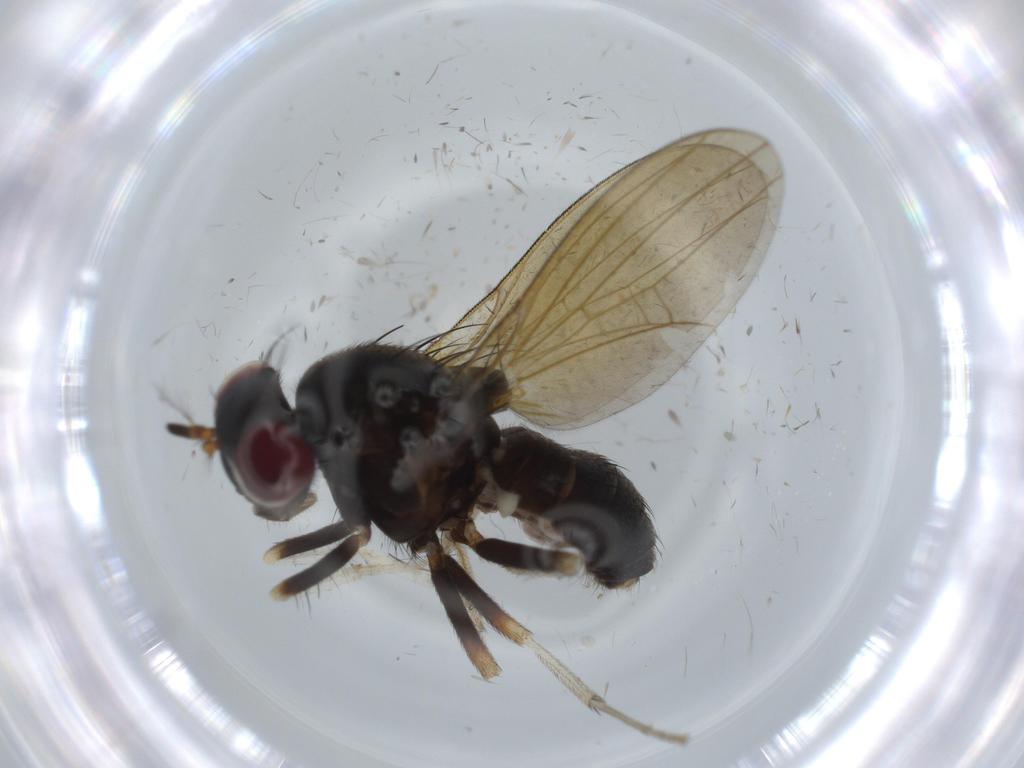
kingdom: Animalia
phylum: Arthropoda
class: Insecta
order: Diptera
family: Lauxaniidae
